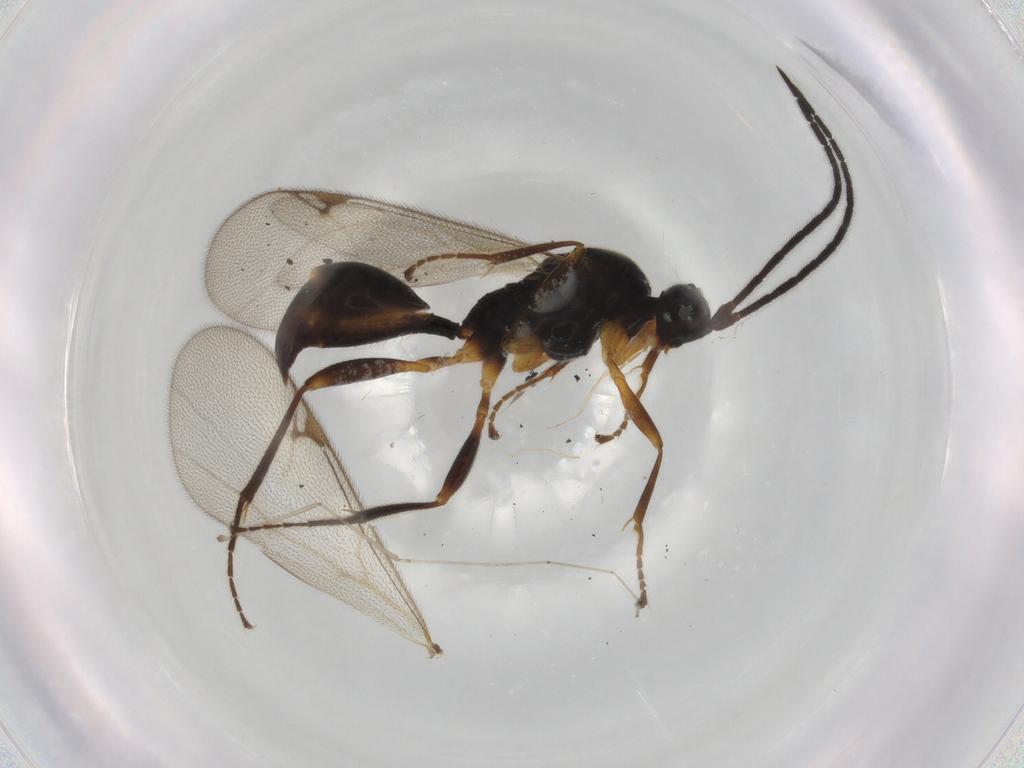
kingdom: Animalia
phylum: Arthropoda
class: Insecta
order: Hymenoptera
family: Proctotrupidae
